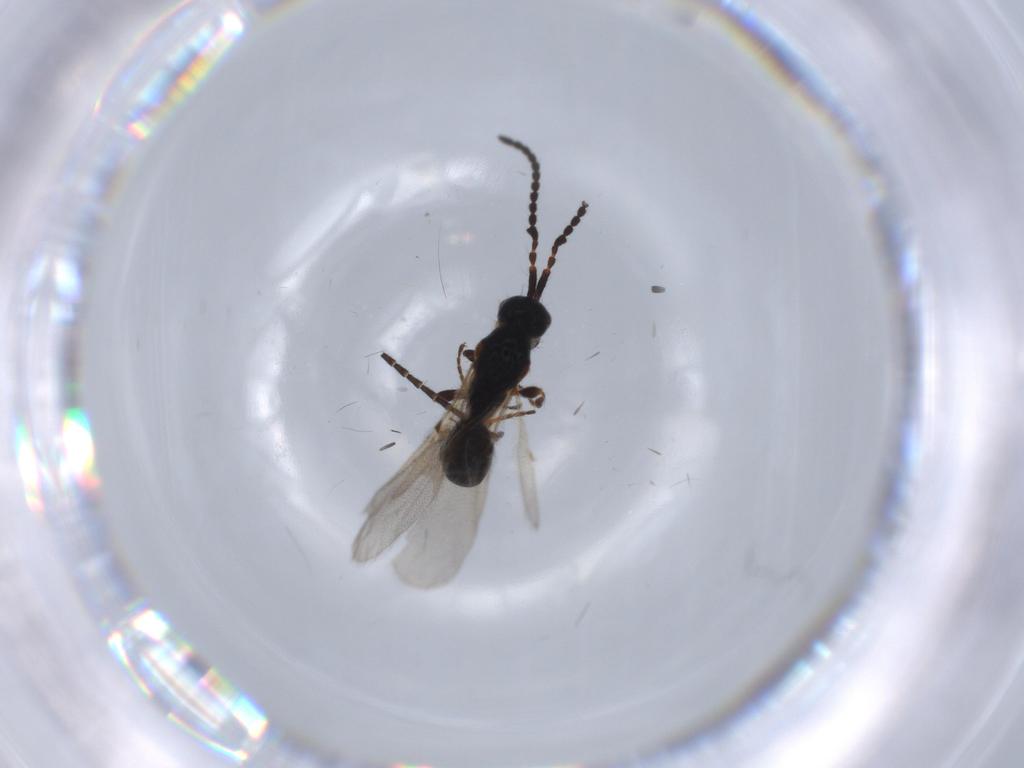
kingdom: Animalia
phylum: Arthropoda
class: Insecta
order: Hymenoptera
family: Diapriidae
